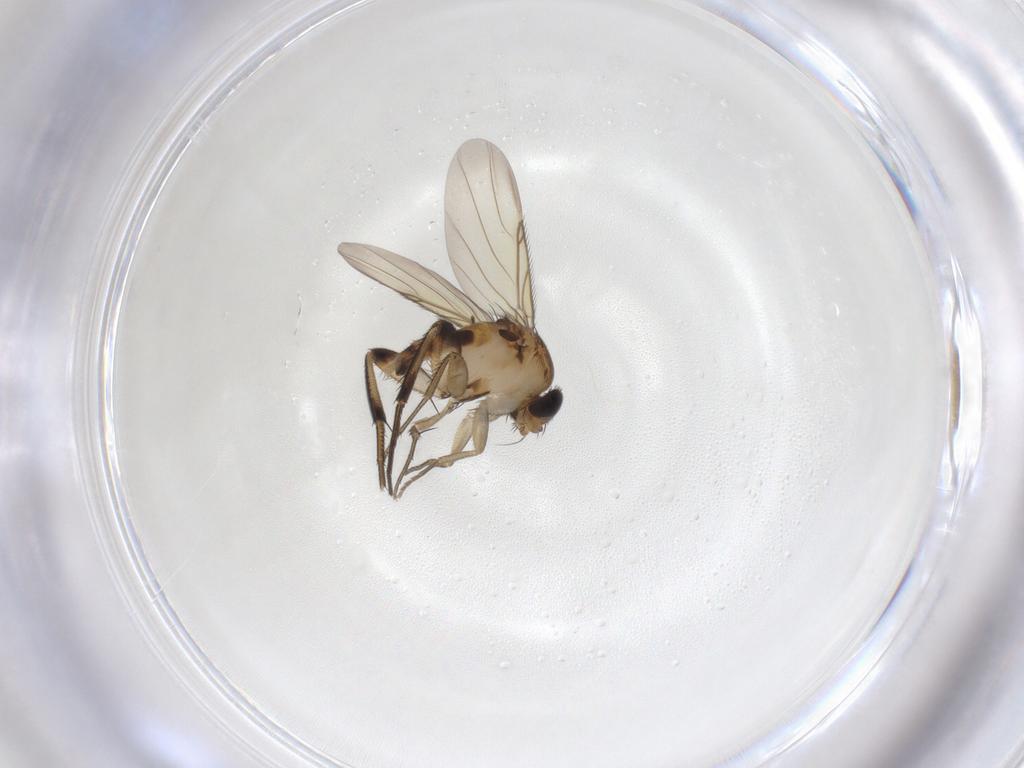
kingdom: Animalia
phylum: Arthropoda
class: Insecta
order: Diptera
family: Phoridae
